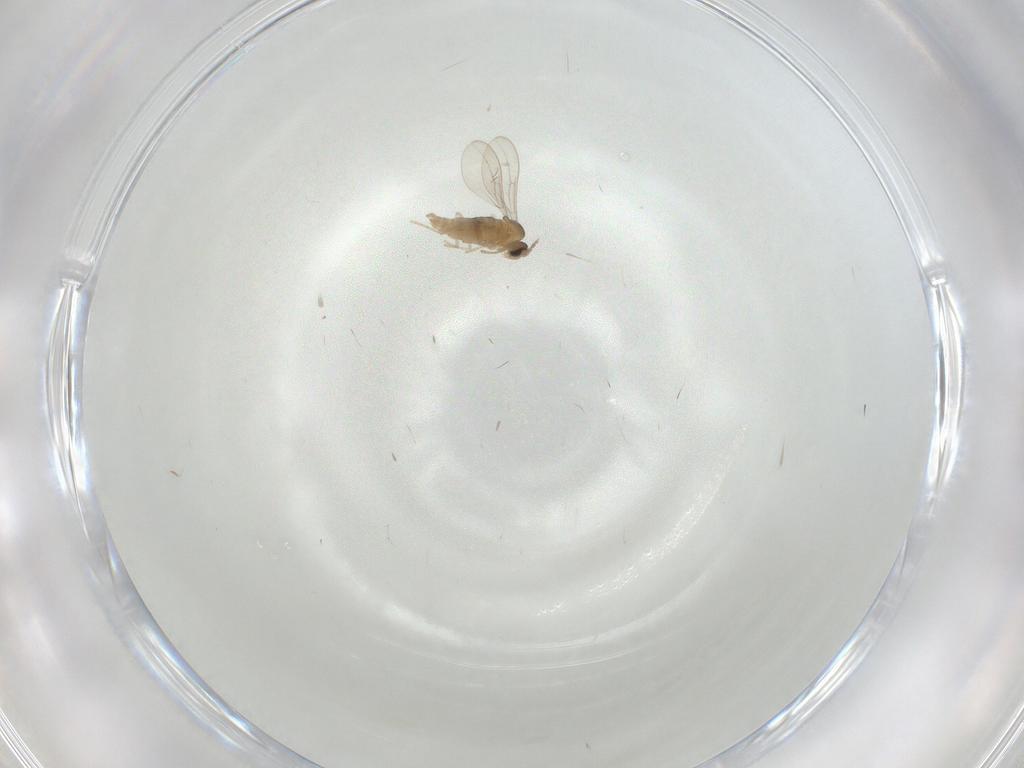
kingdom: Animalia
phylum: Arthropoda
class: Insecta
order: Diptera
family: Cecidomyiidae
